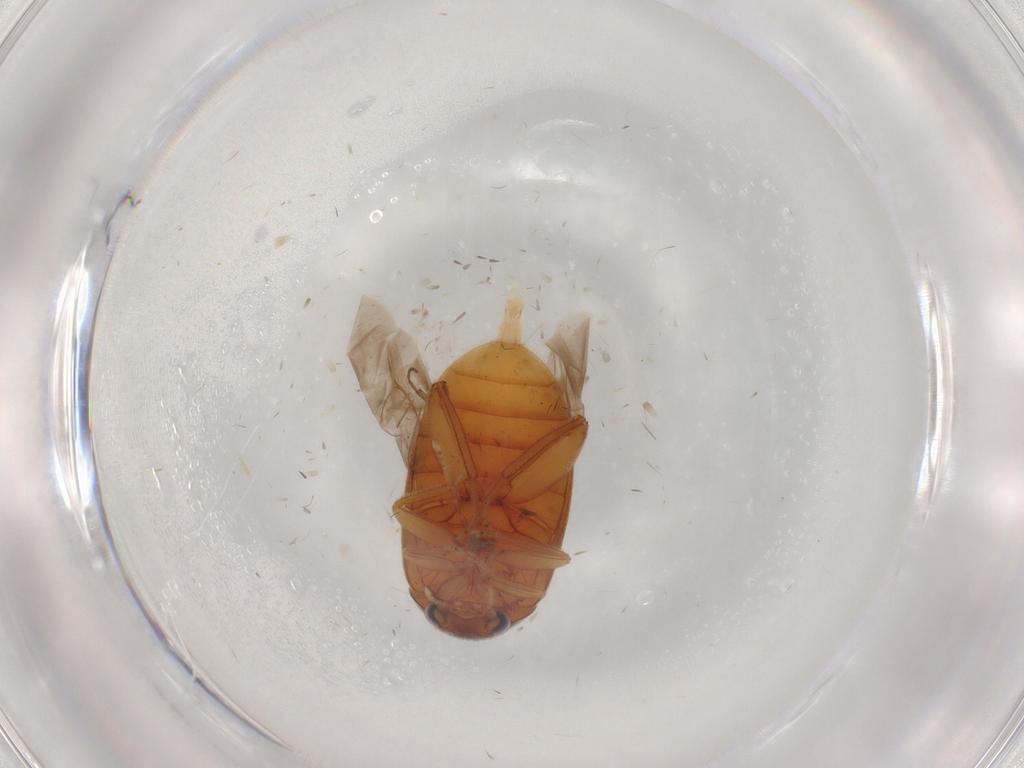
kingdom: Animalia
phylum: Arthropoda
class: Insecta
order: Coleoptera
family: Scirtidae
